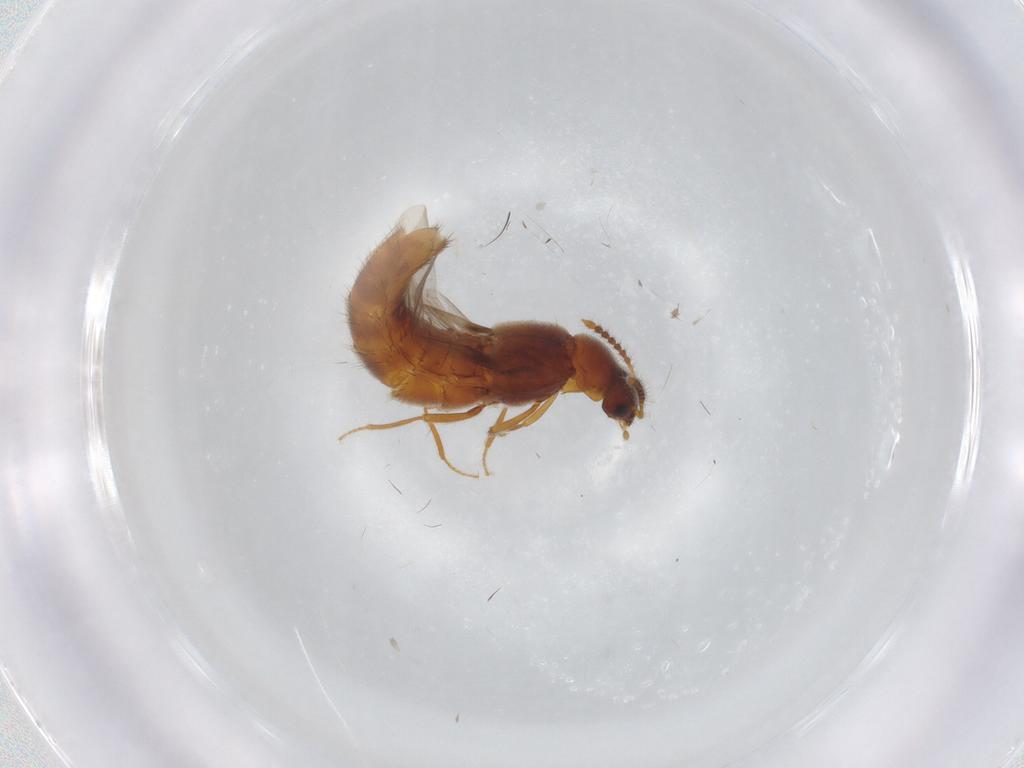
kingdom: Animalia
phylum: Arthropoda
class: Insecta
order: Coleoptera
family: Staphylinidae
